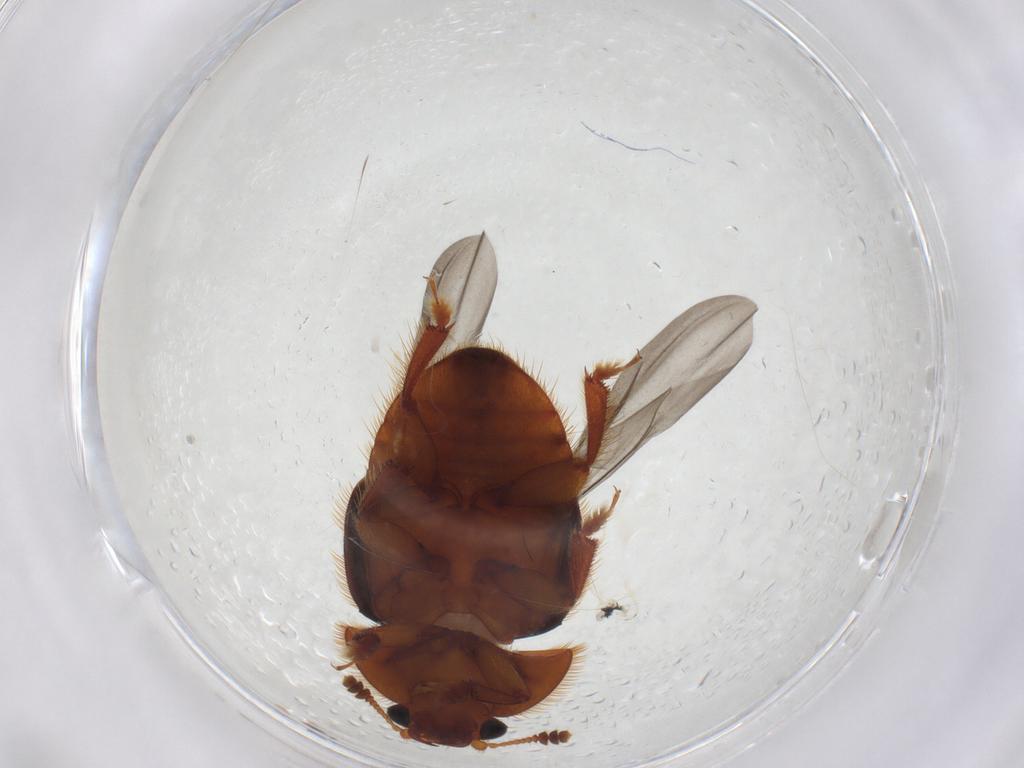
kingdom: Animalia
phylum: Arthropoda
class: Insecta
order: Coleoptera
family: Nitidulidae
